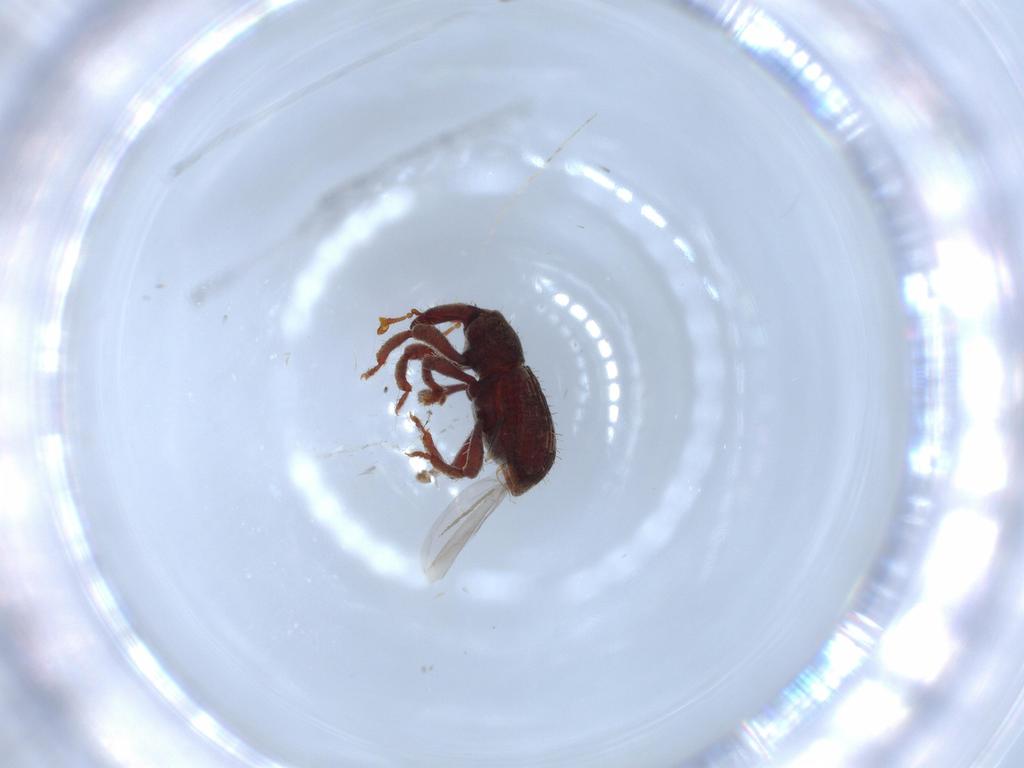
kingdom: Animalia
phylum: Arthropoda
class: Insecta
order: Coleoptera
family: Curculionidae
